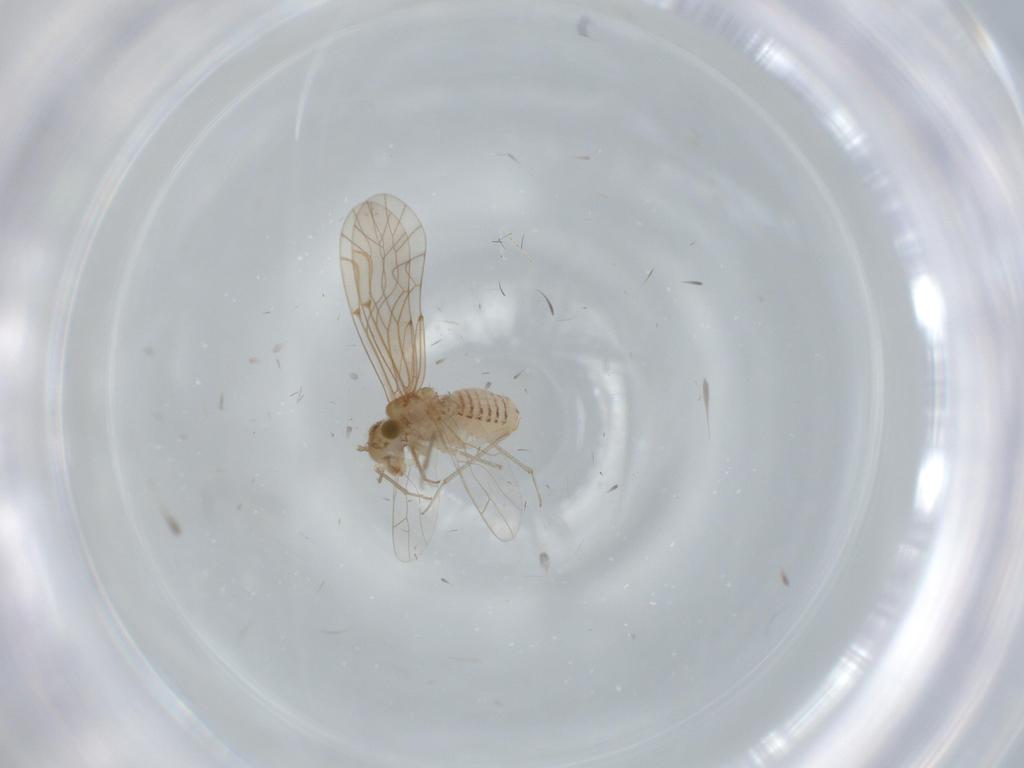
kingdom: Animalia
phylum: Arthropoda
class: Insecta
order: Psocodea
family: Lachesillidae
